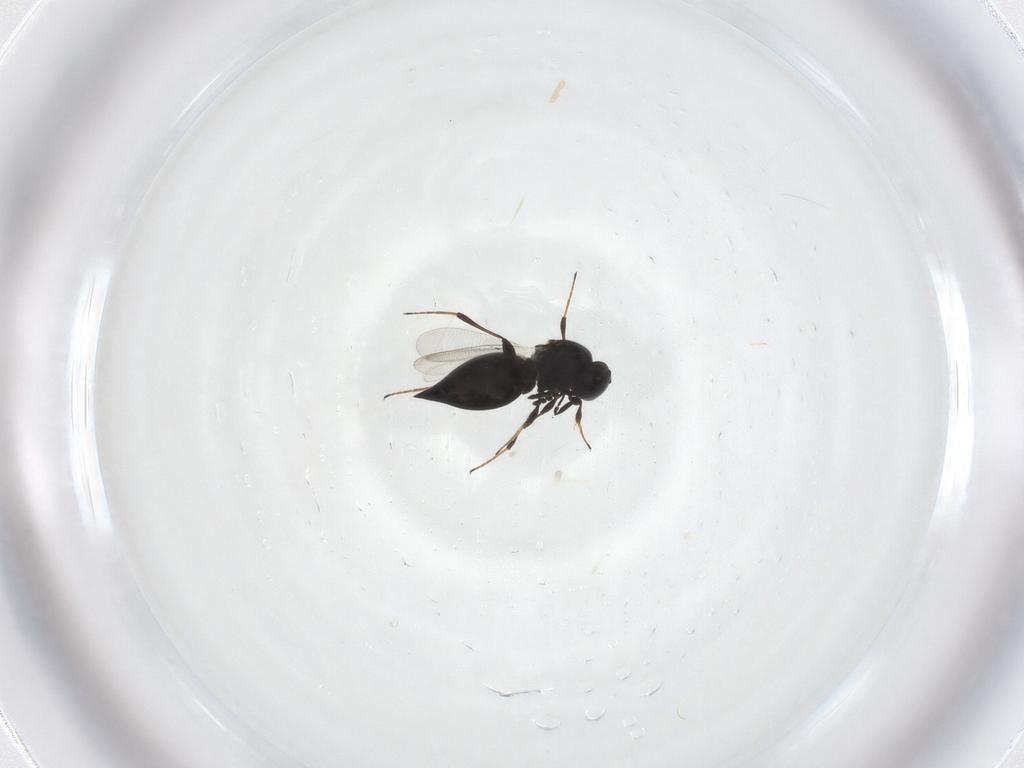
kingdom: Animalia
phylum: Arthropoda
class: Insecta
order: Hymenoptera
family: Platygastridae
